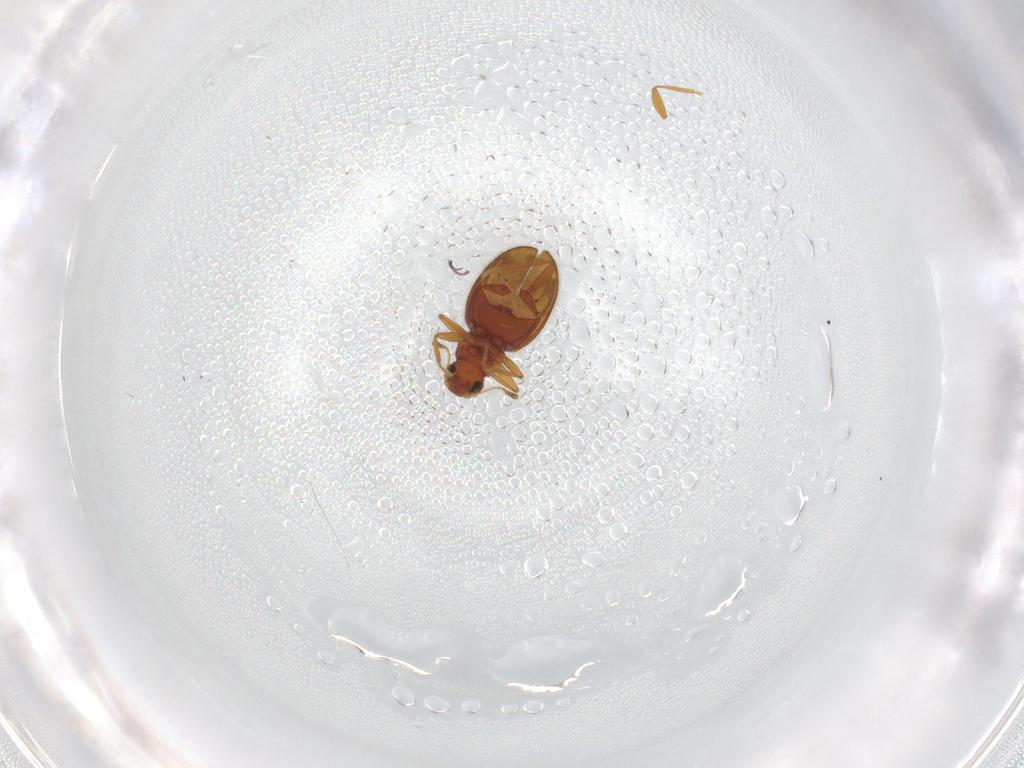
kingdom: Animalia
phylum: Arthropoda
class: Insecta
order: Coleoptera
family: Latridiidae
